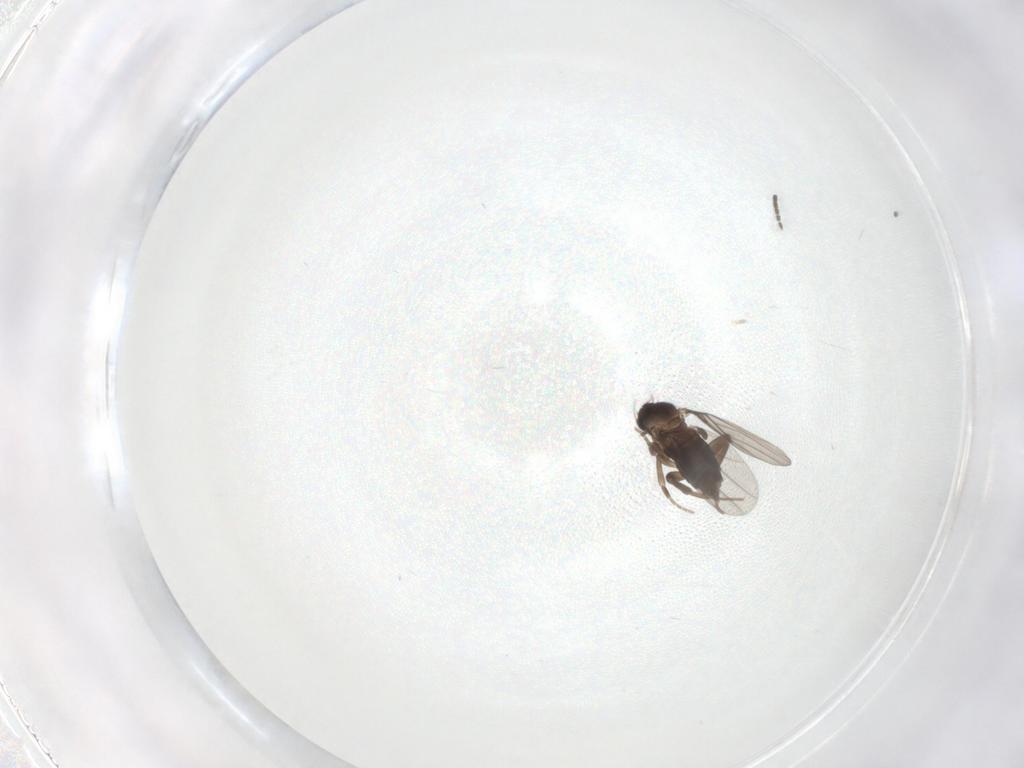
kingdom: Animalia
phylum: Arthropoda
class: Insecta
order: Diptera
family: Phoridae
